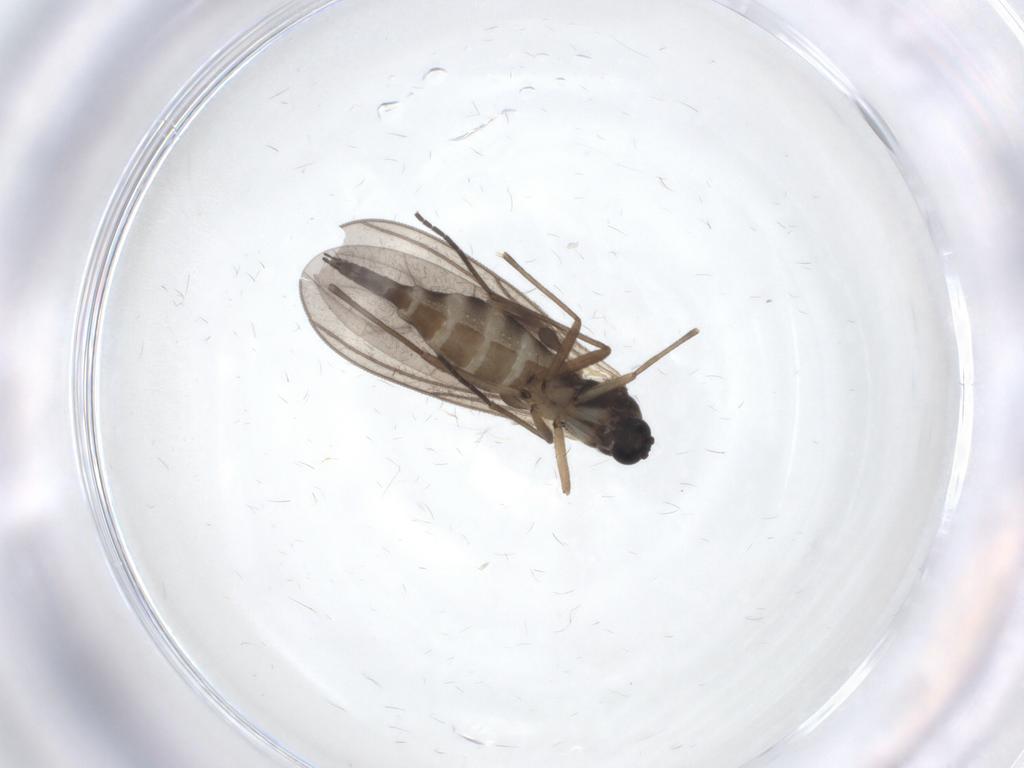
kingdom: Animalia
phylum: Arthropoda
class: Insecta
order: Diptera
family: Sciaridae
